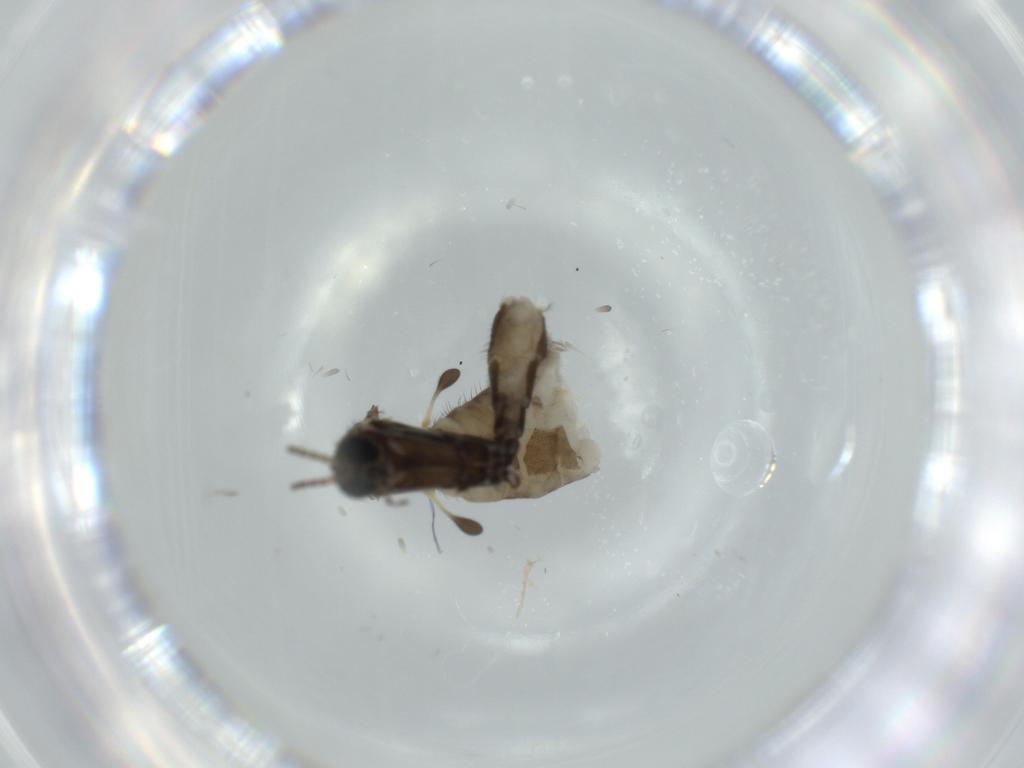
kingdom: Animalia
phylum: Arthropoda
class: Insecta
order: Diptera
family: Sciaridae
